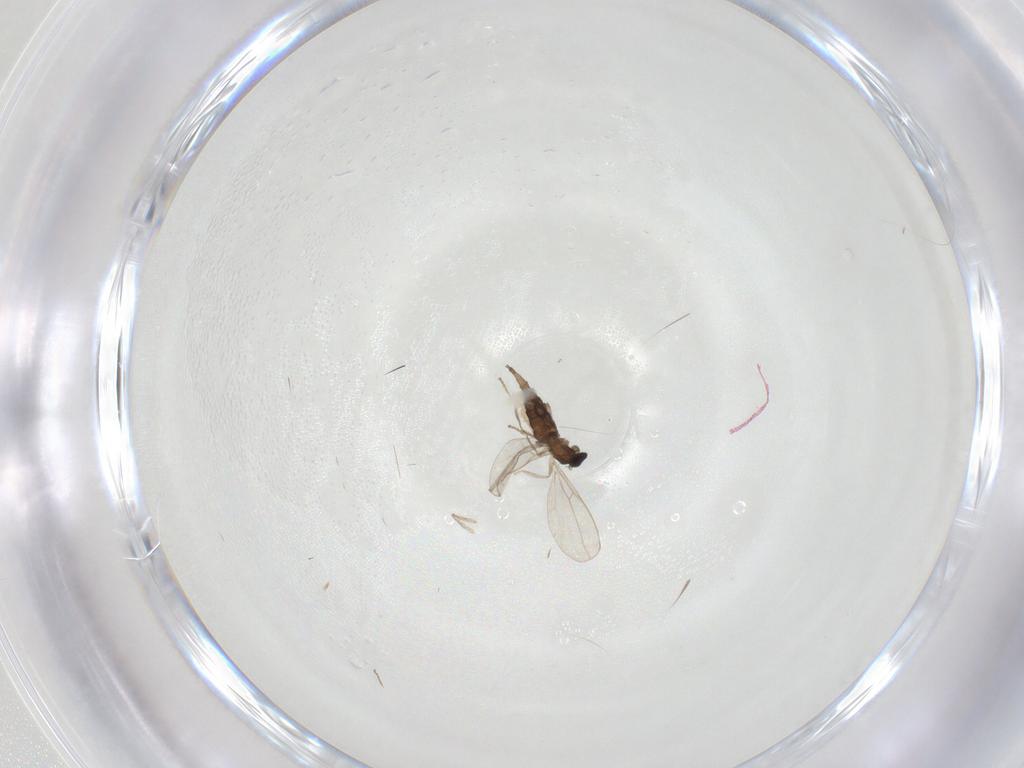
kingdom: Animalia
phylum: Arthropoda
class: Insecta
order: Diptera
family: Cecidomyiidae
